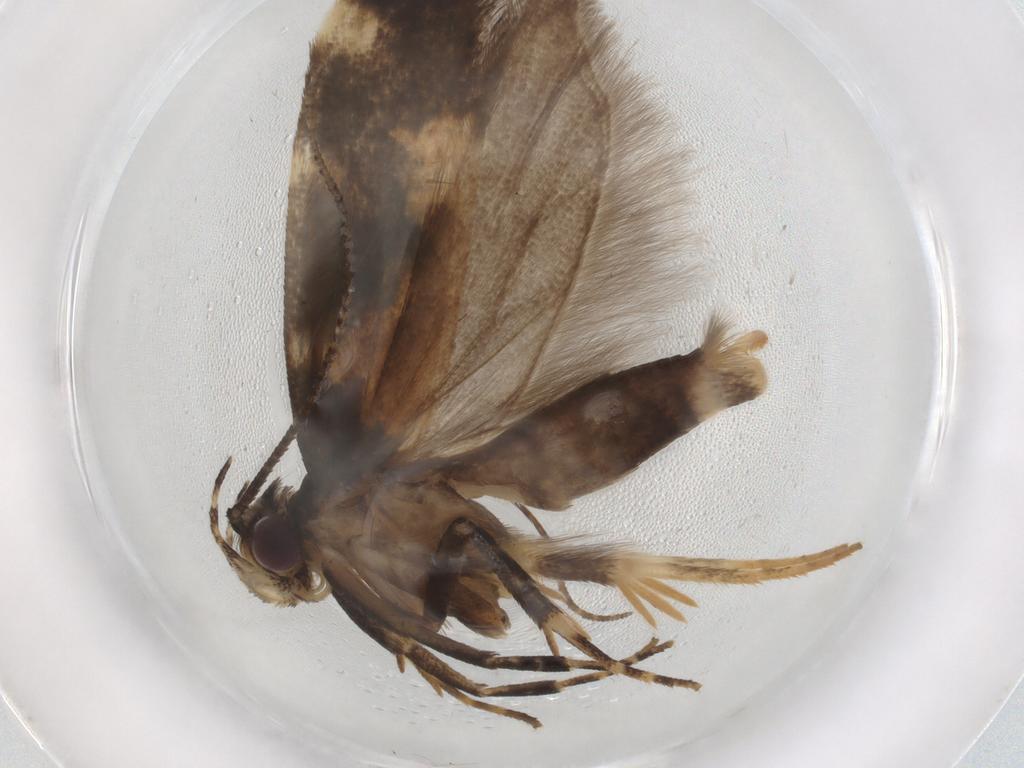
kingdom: Animalia
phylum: Arthropoda
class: Insecta
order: Lepidoptera
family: Gelechiidae
